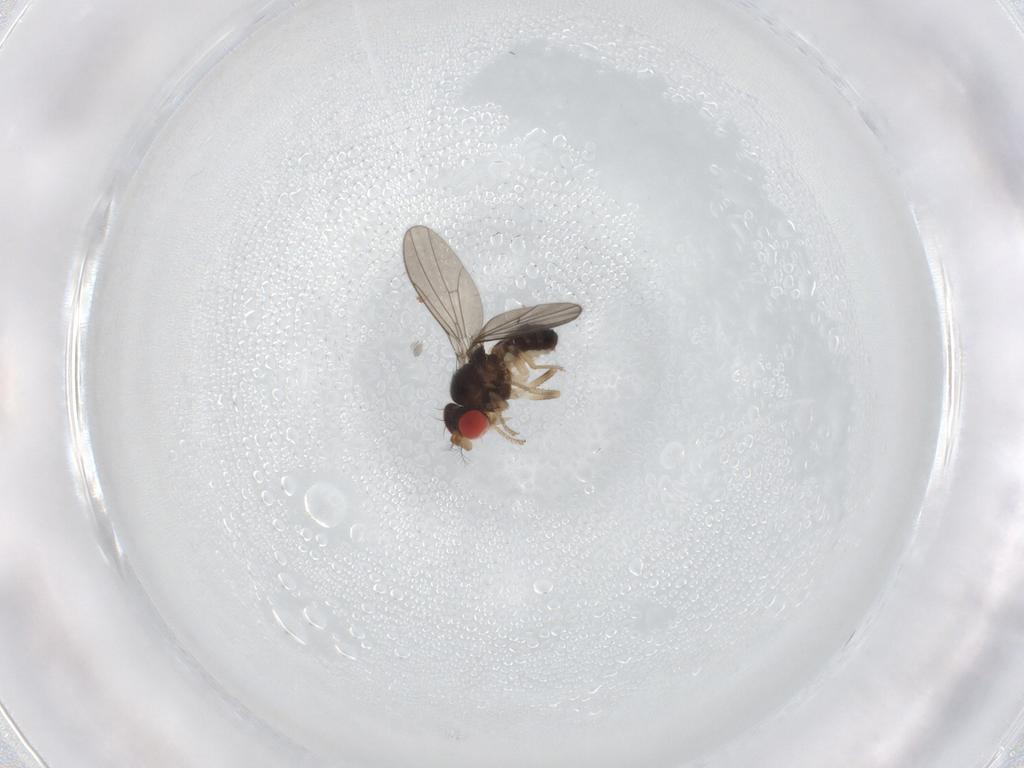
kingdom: Animalia
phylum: Arthropoda
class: Insecta
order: Diptera
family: Drosophilidae
